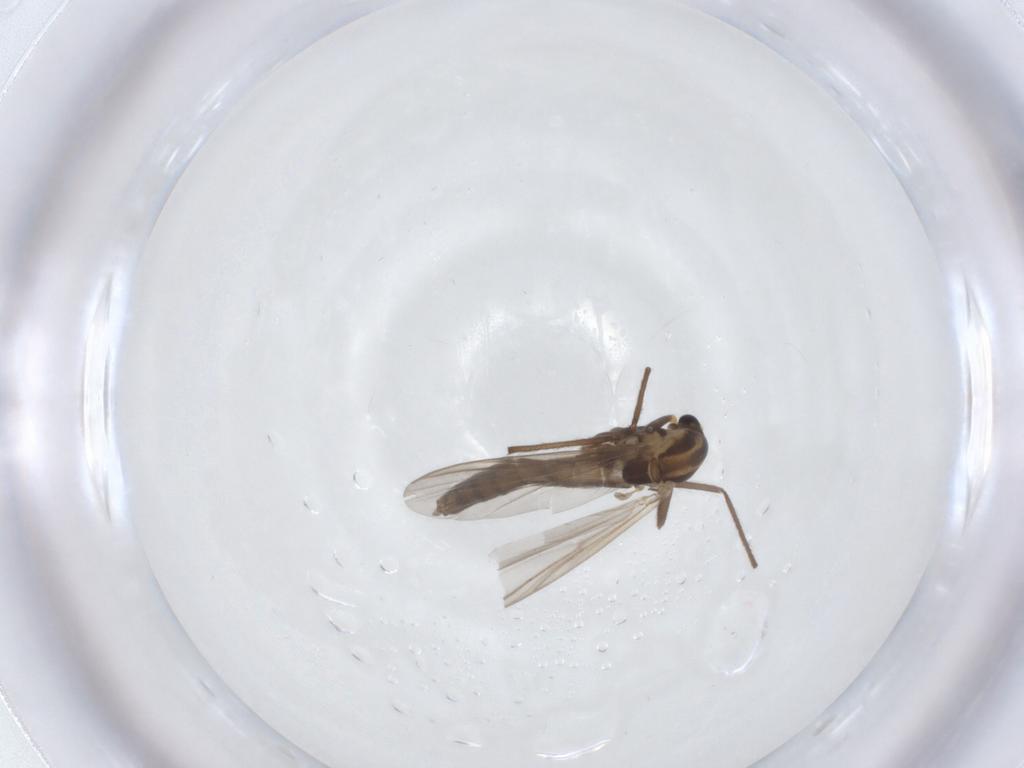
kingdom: Animalia
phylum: Arthropoda
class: Insecta
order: Diptera
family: Chironomidae
